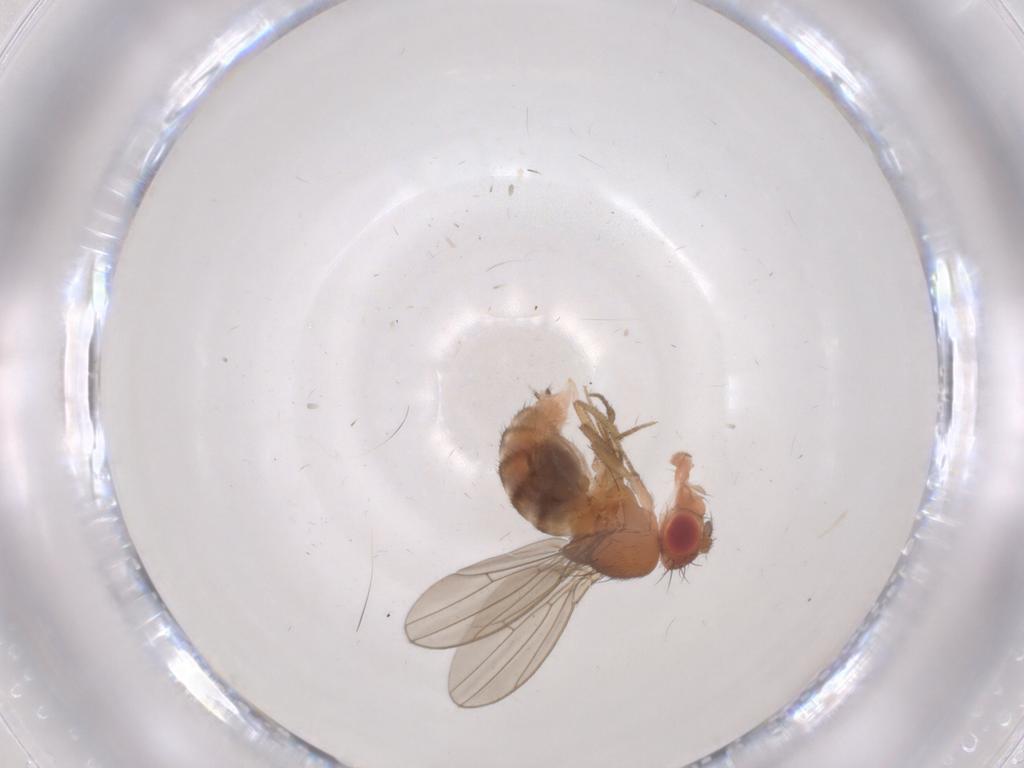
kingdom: Animalia
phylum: Arthropoda
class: Insecta
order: Diptera
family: Drosophilidae
